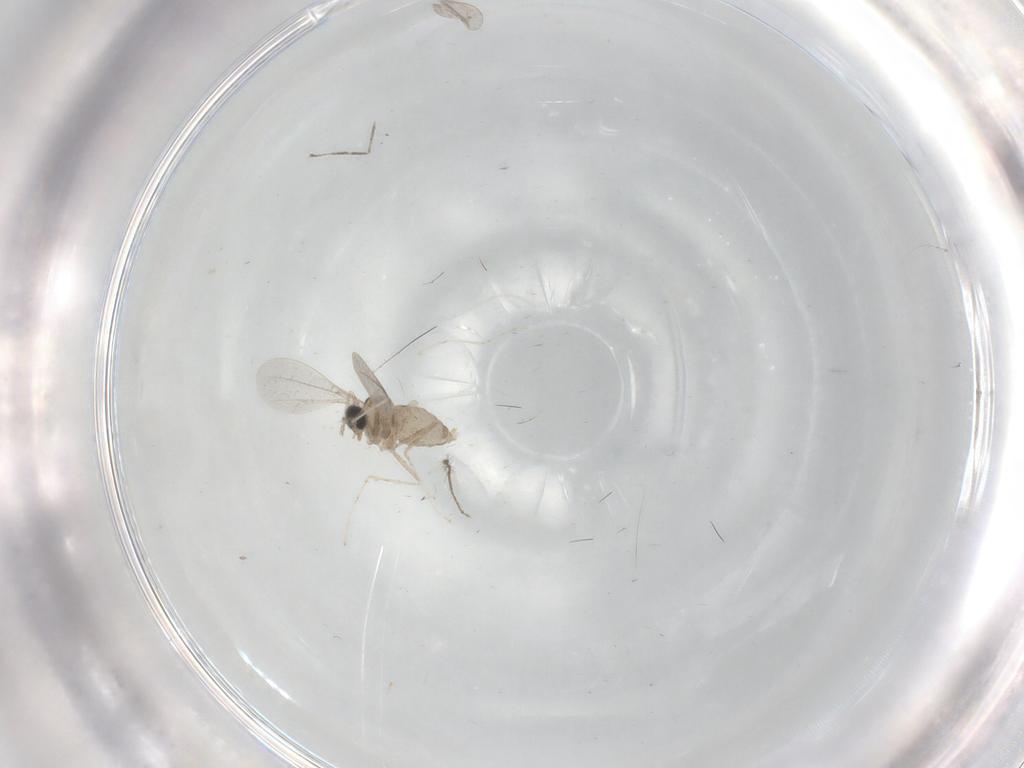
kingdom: Animalia
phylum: Arthropoda
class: Insecta
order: Diptera
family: Cecidomyiidae
